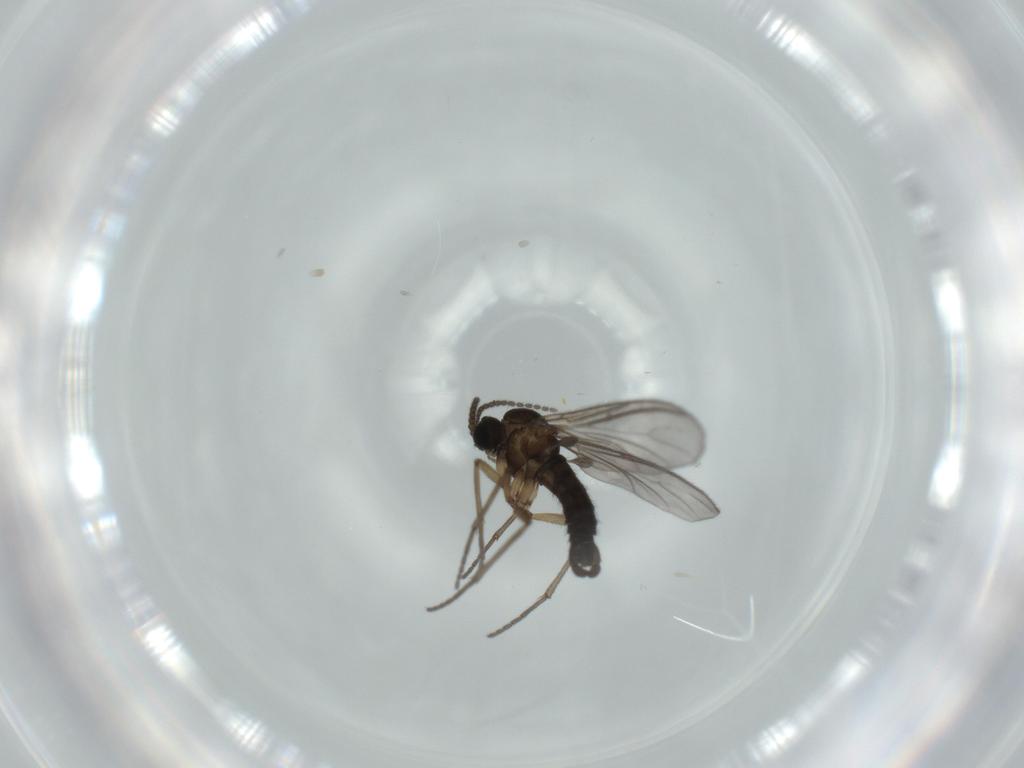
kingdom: Animalia
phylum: Arthropoda
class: Insecta
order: Diptera
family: Sciaridae
